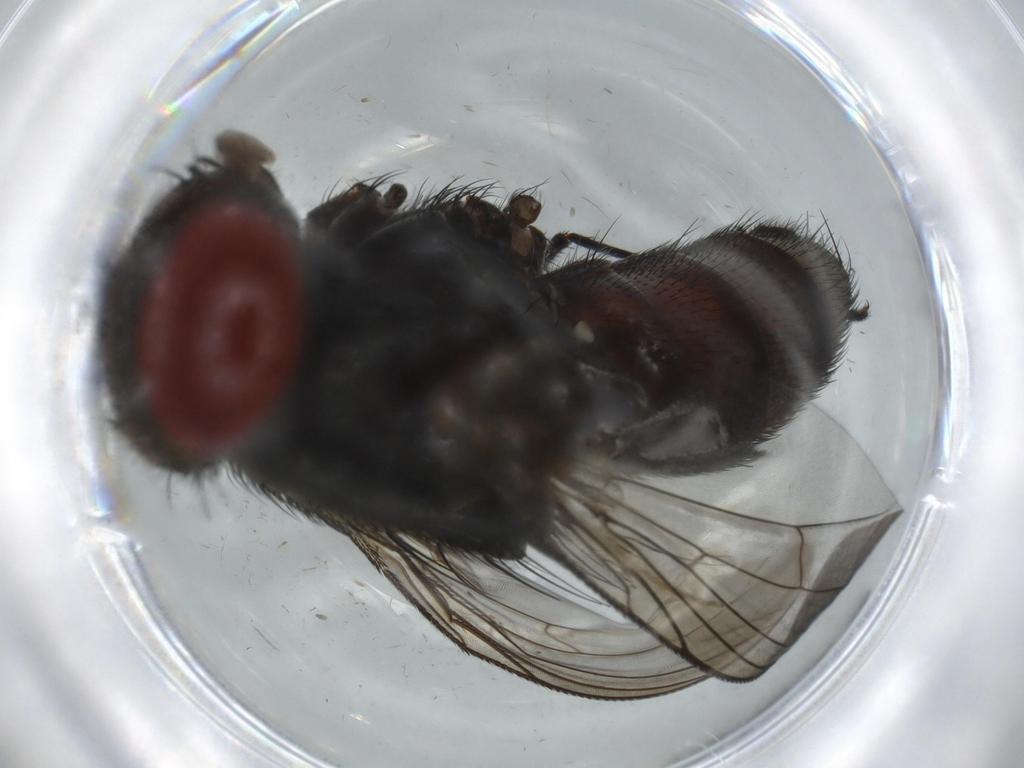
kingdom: Animalia
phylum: Arthropoda
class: Insecta
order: Diptera
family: Chironomidae
